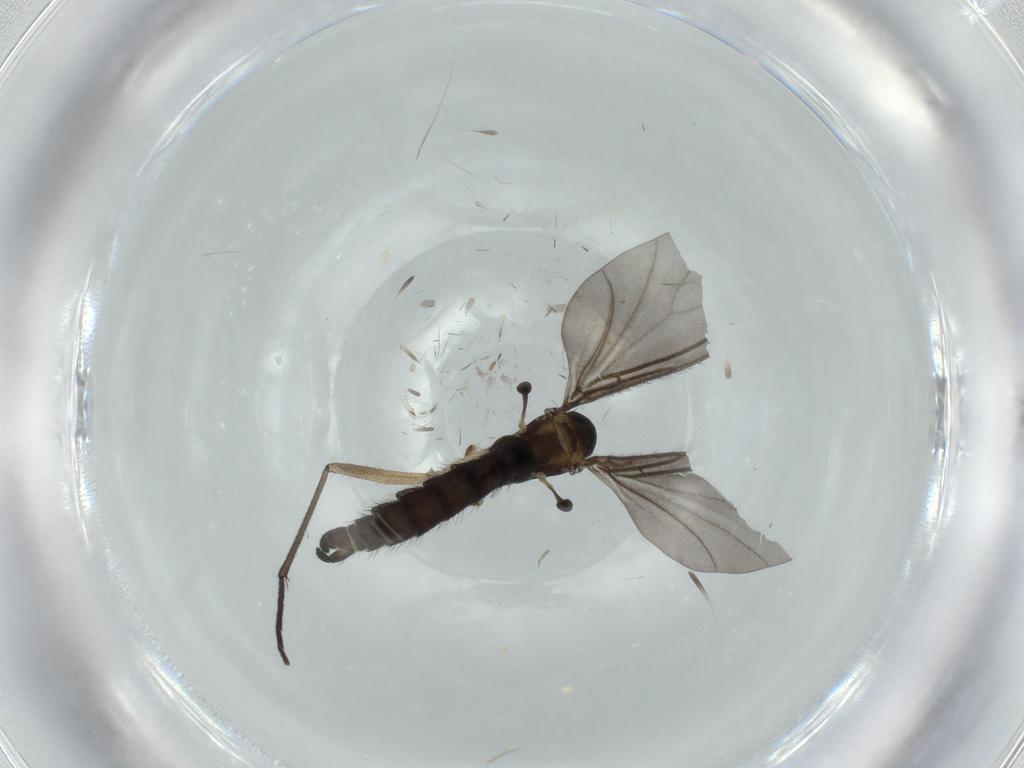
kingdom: Animalia
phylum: Arthropoda
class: Insecta
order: Diptera
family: Sciaridae
